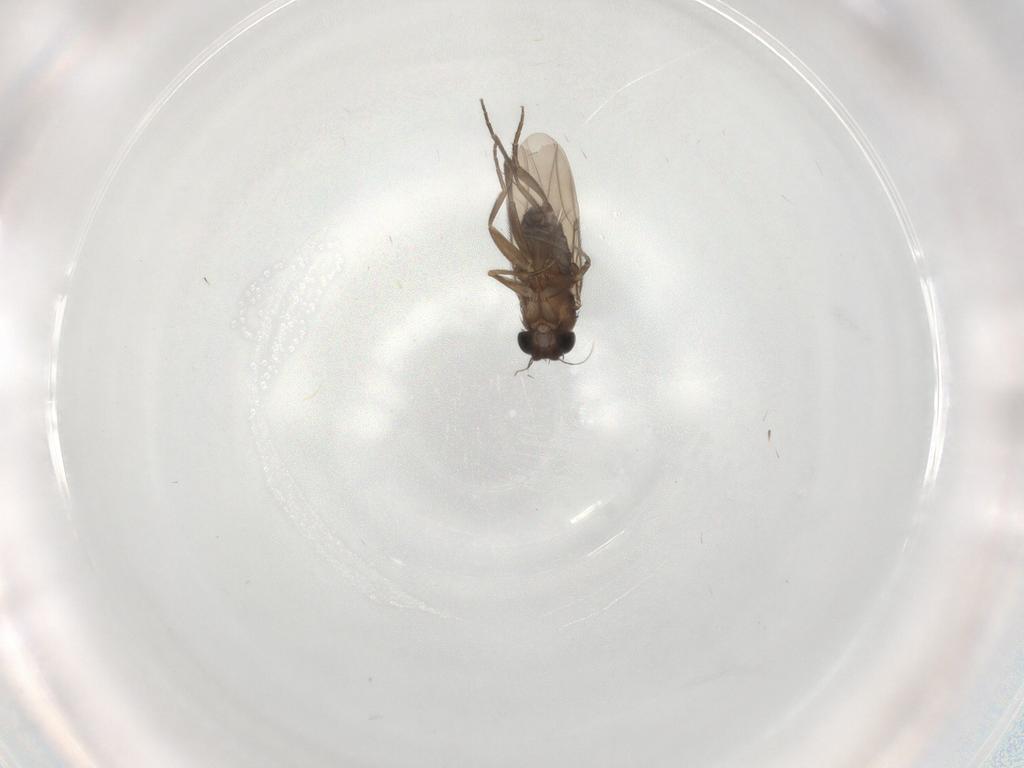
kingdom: Animalia
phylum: Arthropoda
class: Insecta
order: Diptera
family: Phoridae
